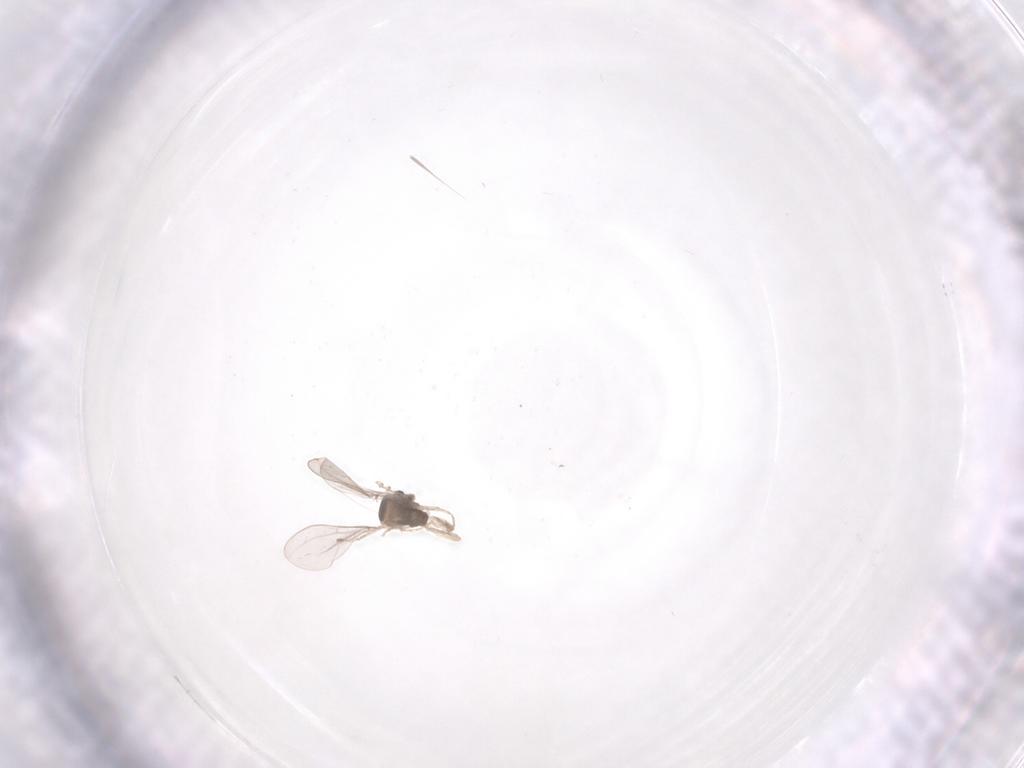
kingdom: Animalia
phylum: Arthropoda
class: Insecta
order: Diptera
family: Cecidomyiidae
